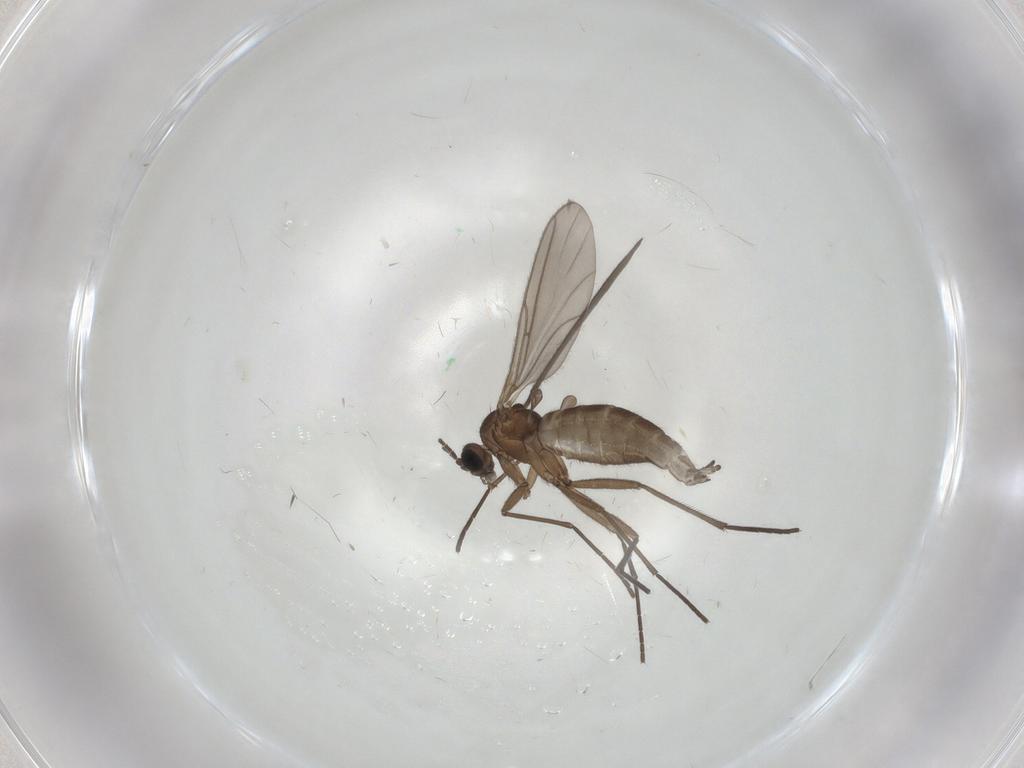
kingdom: Animalia
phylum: Arthropoda
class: Insecta
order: Diptera
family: Sciaridae
